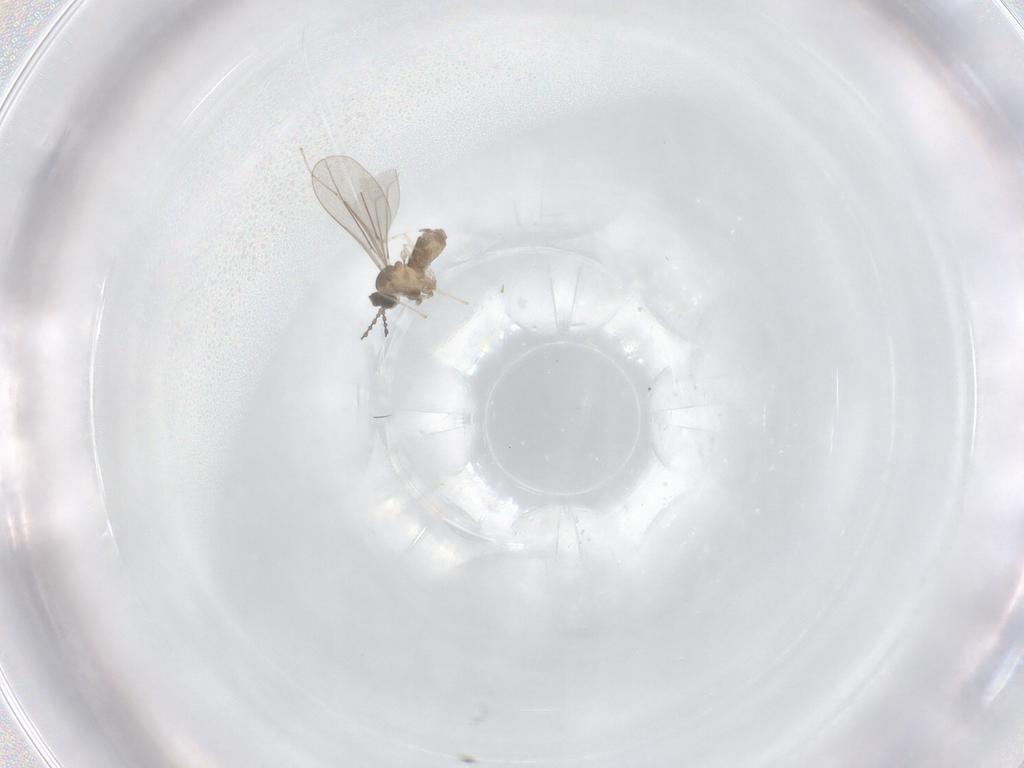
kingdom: Animalia
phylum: Arthropoda
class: Insecta
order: Diptera
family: Cecidomyiidae
